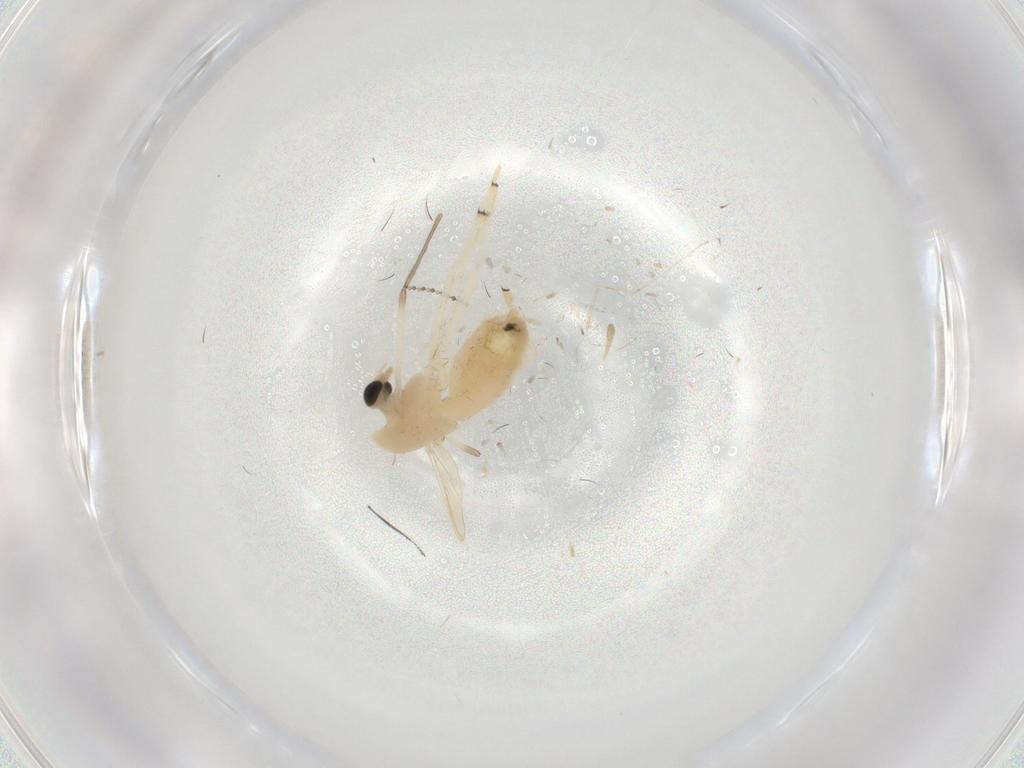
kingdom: Animalia
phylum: Arthropoda
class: Insecta
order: Diptera
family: Chironomidae
